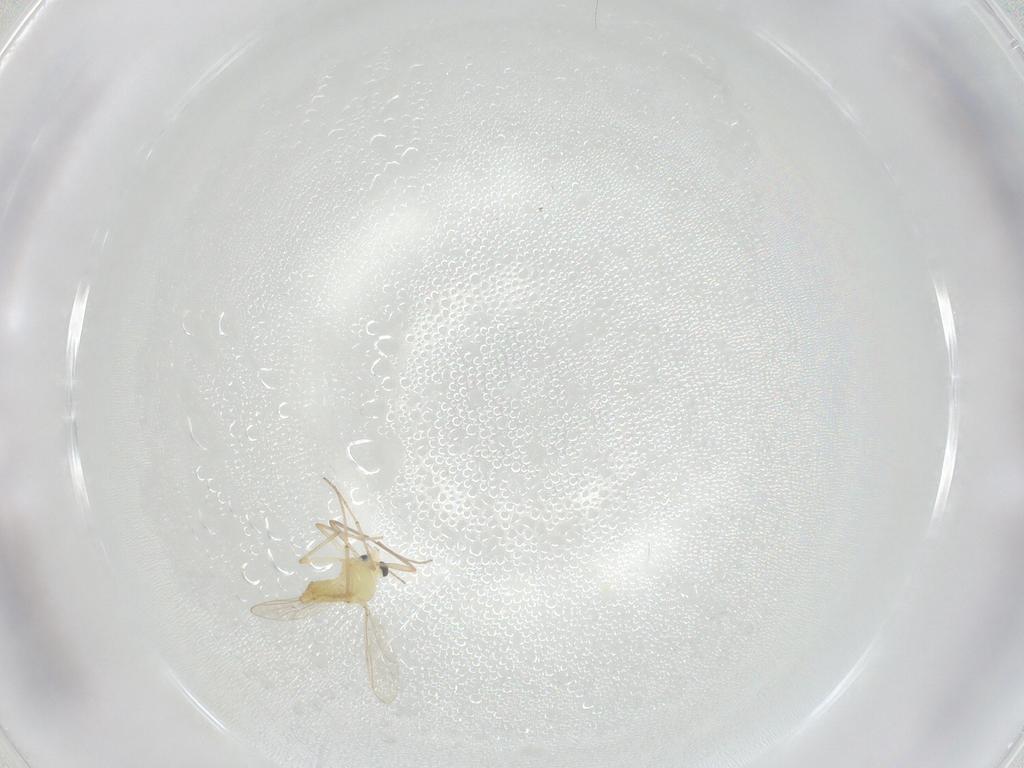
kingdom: Animalia
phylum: Arthropoda
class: Insecta
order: Diptera
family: Chironomidae
